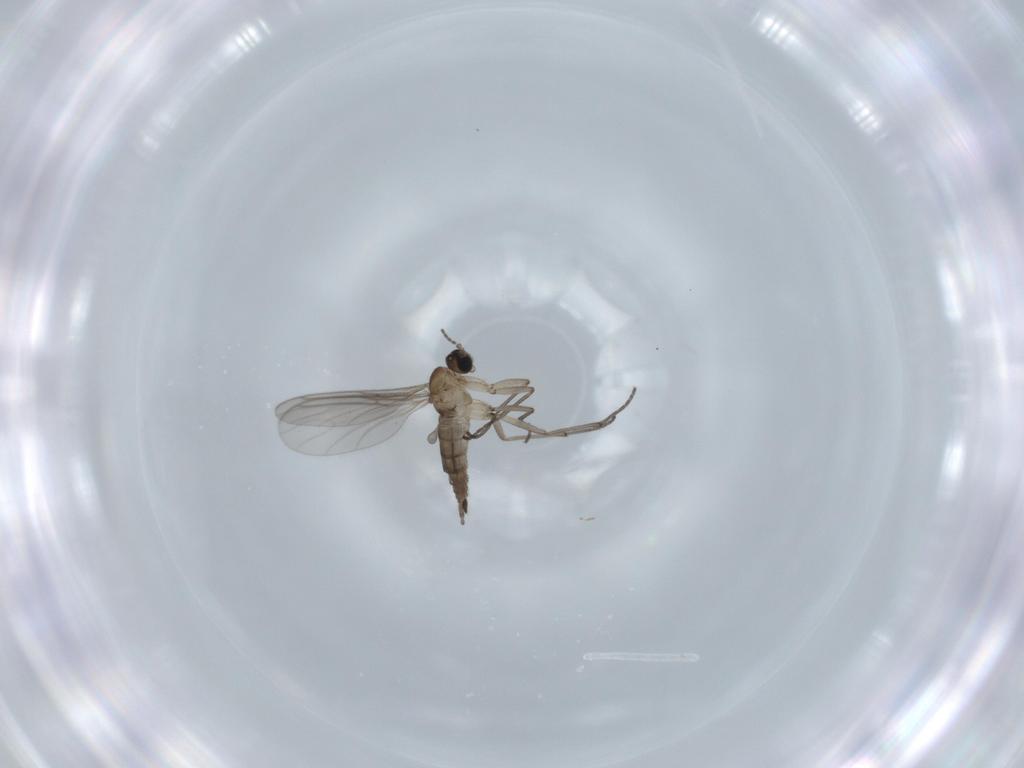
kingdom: Animalia
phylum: Arthropoda
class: Insecta
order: Diptera
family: Sciaridae
